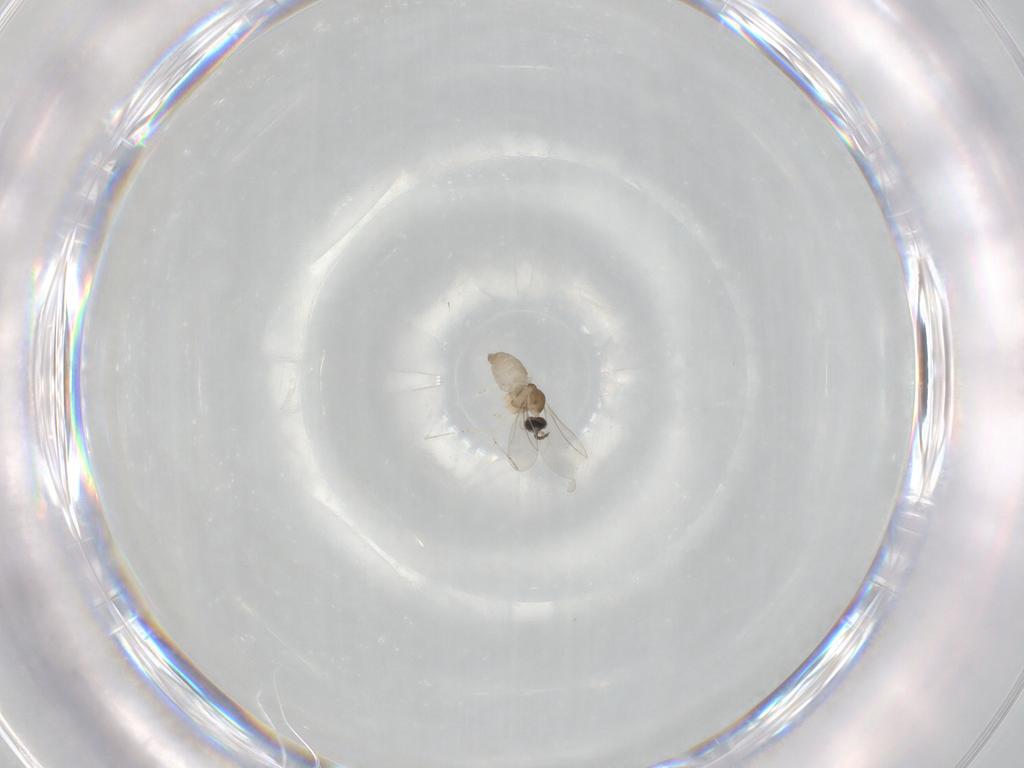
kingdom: Animalia
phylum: Arthropoda
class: Insecta
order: Diptera
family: Cecidomyiidae
